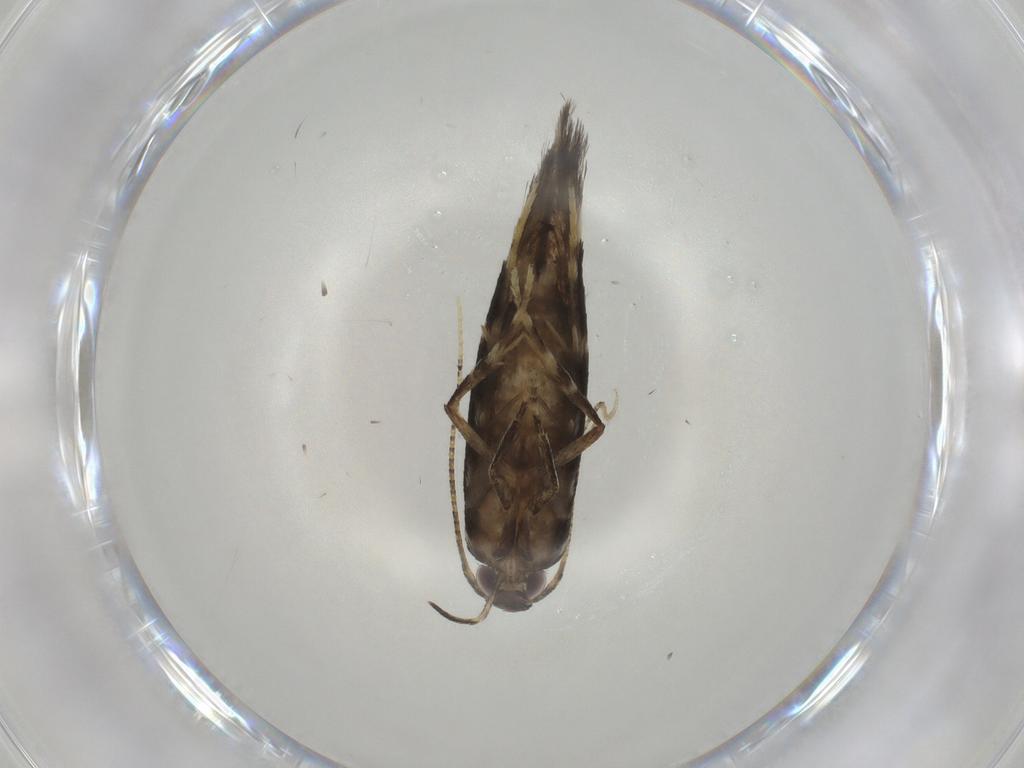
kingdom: Animalia
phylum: Arthropoda
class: Insecta
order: Lepidoptera
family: Cosmopterigidae
